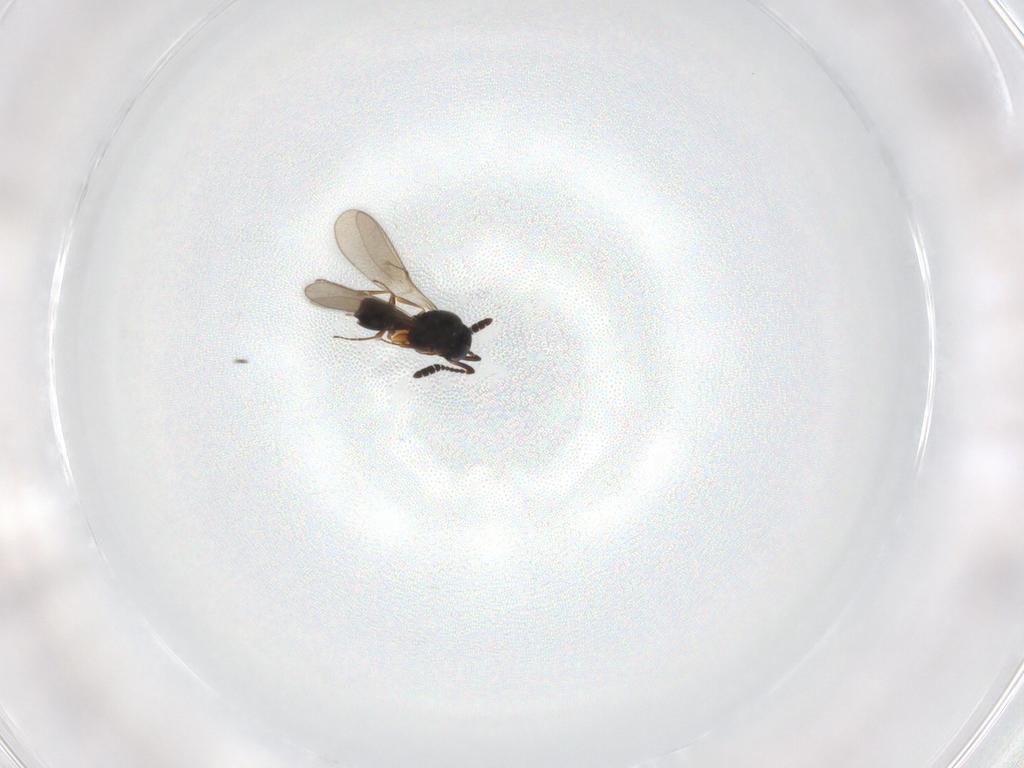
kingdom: Animalia
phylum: Arthropoda
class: Insecta
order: Hymenoptera
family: Scelionidae
